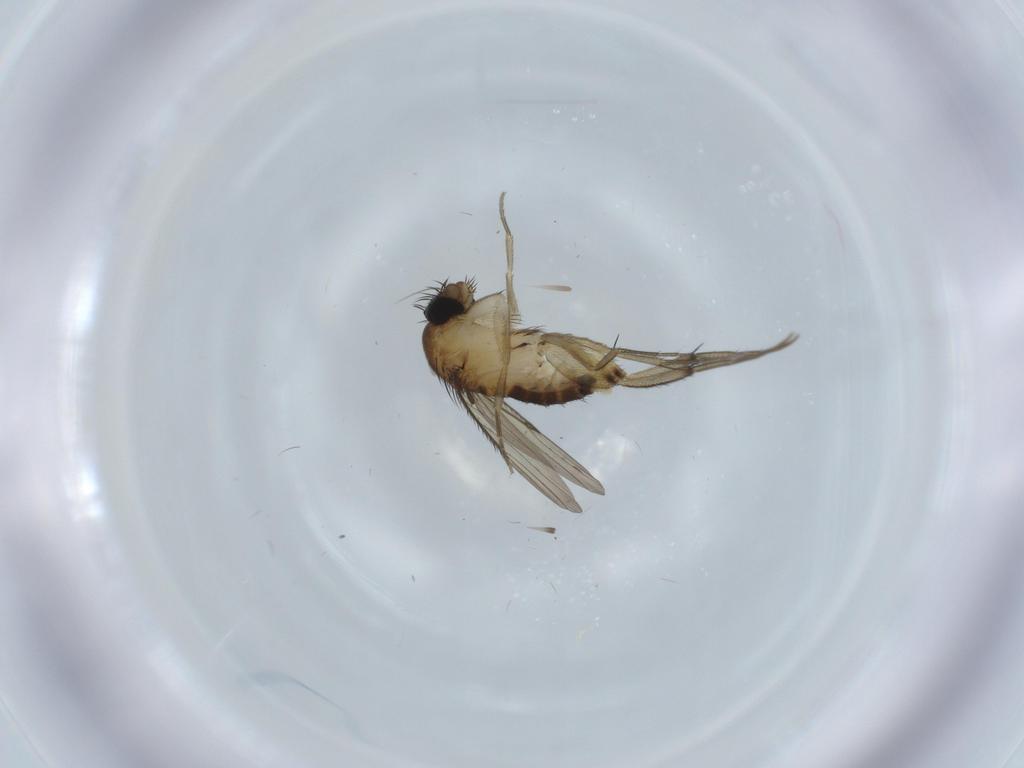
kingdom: Animalia
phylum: Arthropoda
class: Insecta
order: Diptera
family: Phoridae
